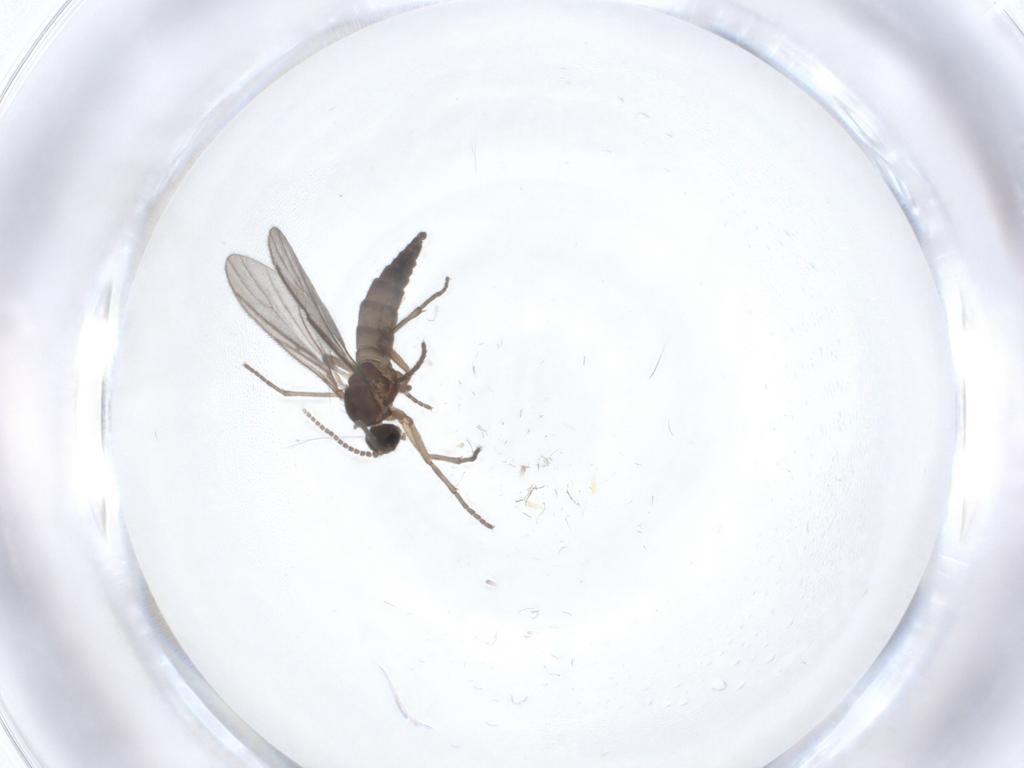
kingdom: Animalia
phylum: Arthropoda
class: Insecta
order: Diptera
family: Sciaridae
